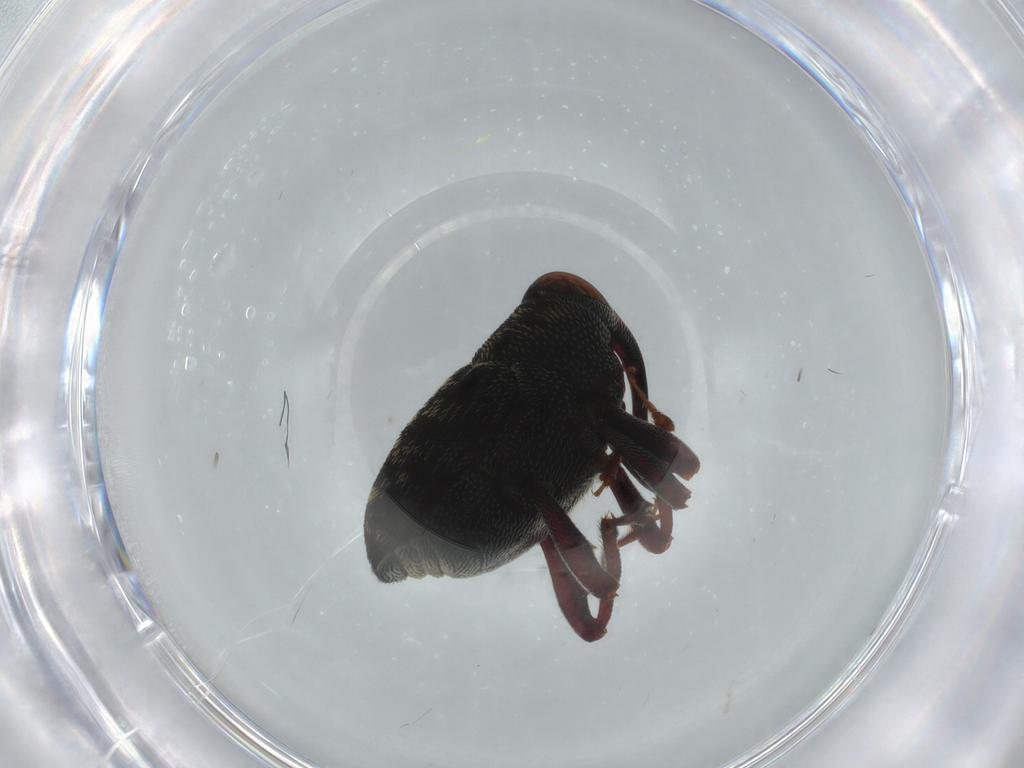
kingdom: Animalia
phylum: Arthropoda
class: Insecta
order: Coleoptera
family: Curculionidae
